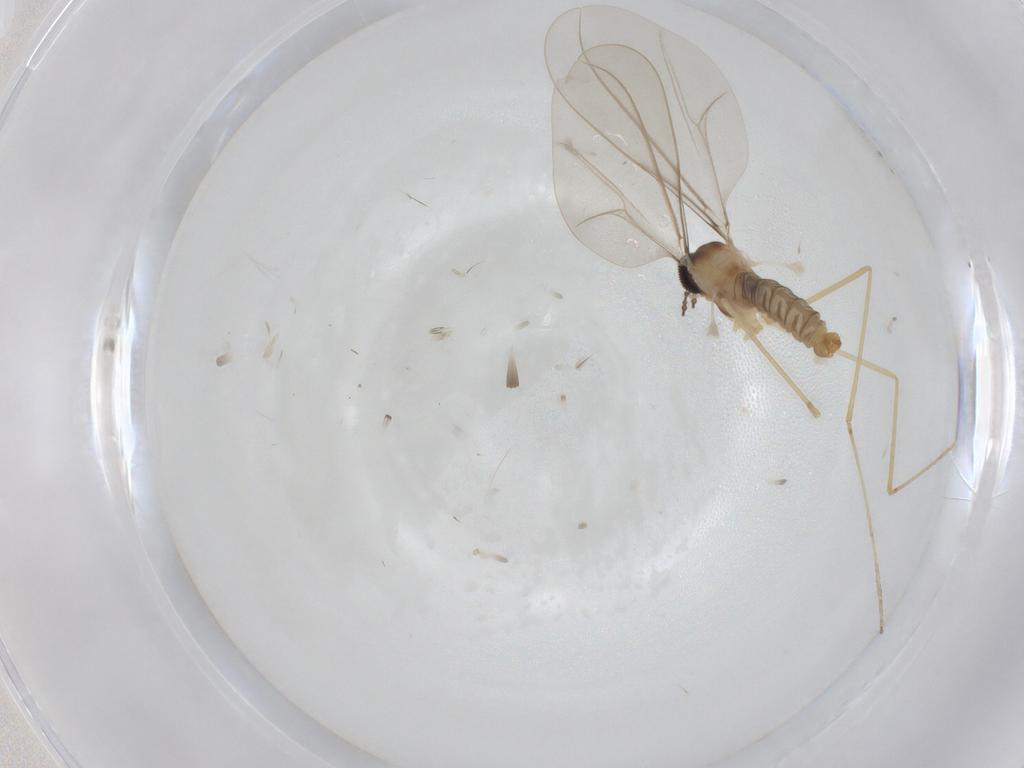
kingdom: Animalia
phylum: Arthropoda
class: Insecta
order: Diptera
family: Cecidomyiidae
